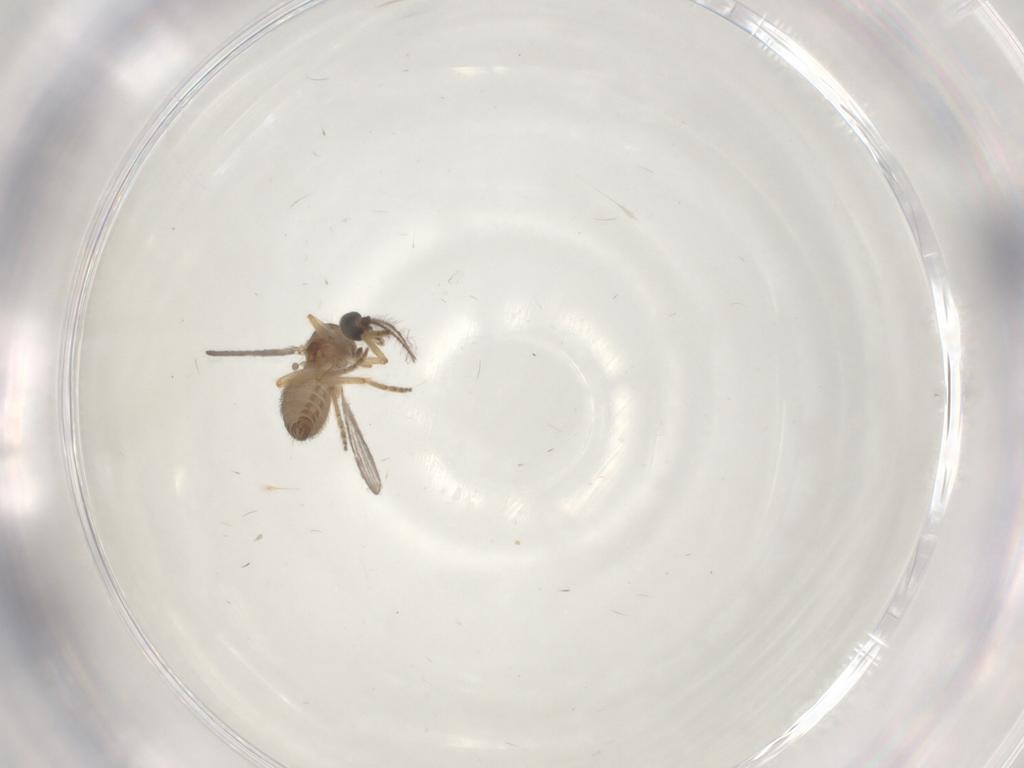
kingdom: Animalia
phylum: Arthropoda
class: Insecta
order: Diptera
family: Ceratopogonidae
